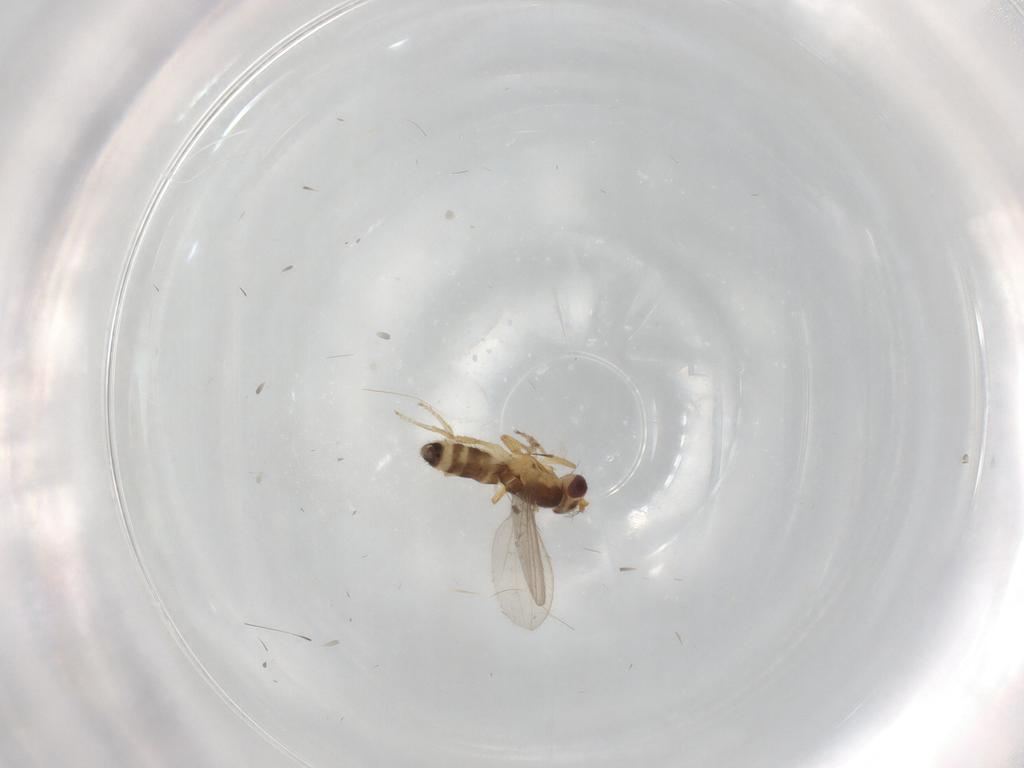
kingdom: Animalia
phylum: Arthropoda
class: Insecta
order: Diptera
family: Periscelididae
